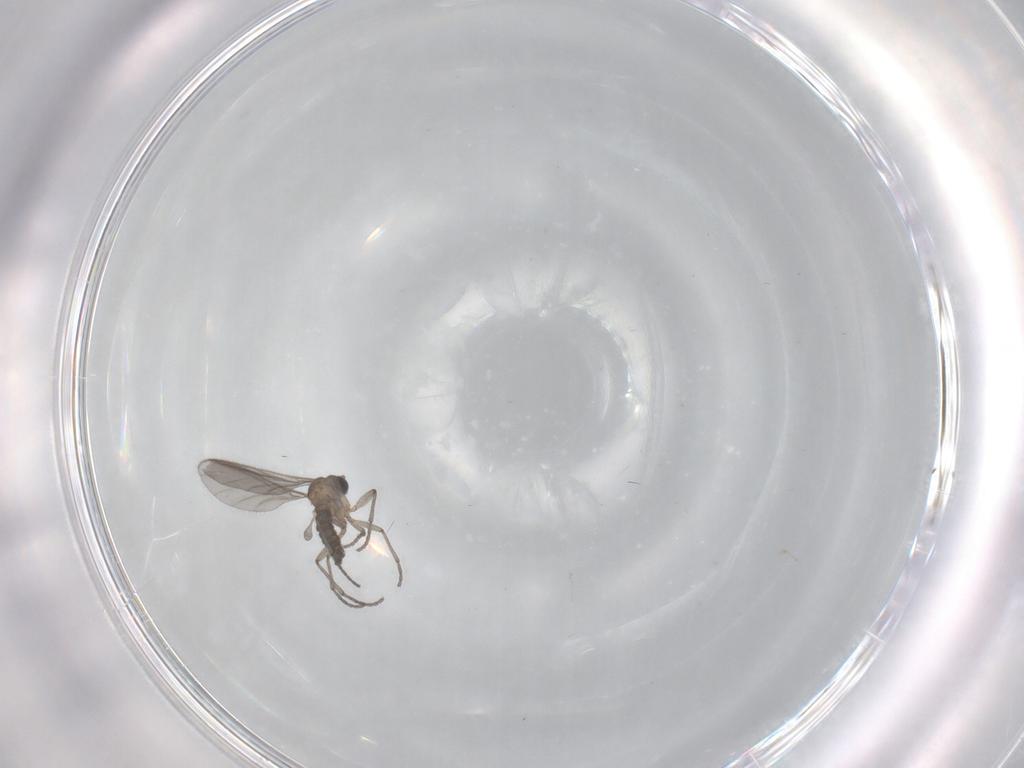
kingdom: Animalia
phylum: Arthropoda
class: Insecta
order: Diptera
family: Sciaridae
